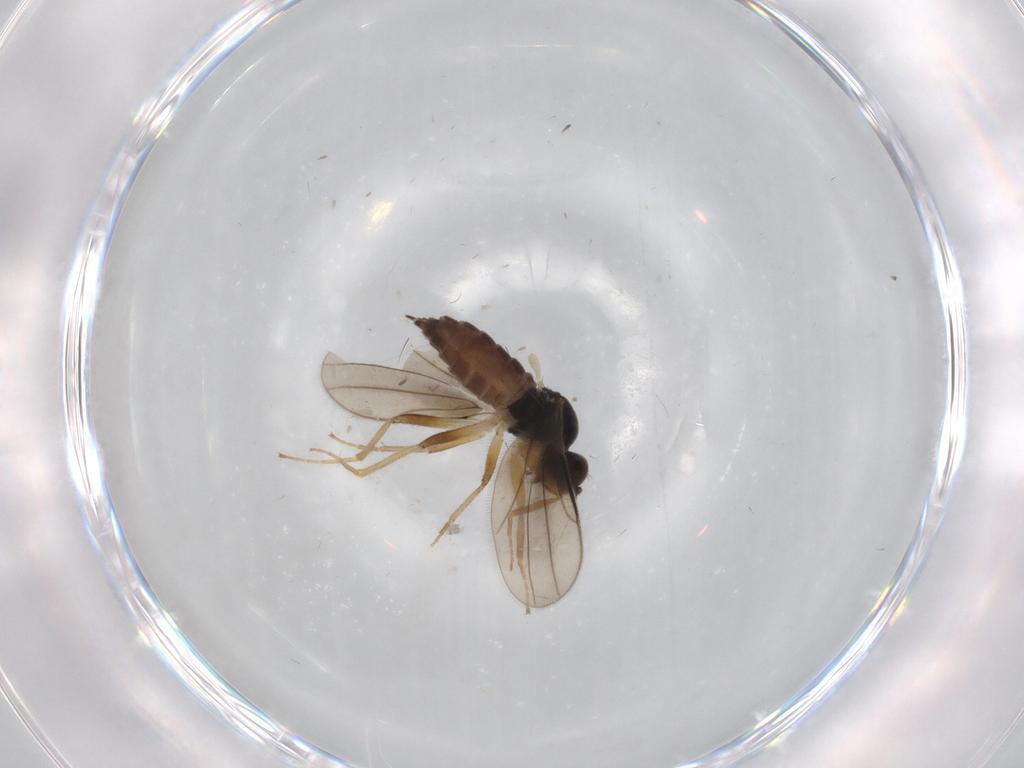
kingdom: Animalia
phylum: Arthropoda
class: Insecta
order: Diptera
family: Hybotidae
